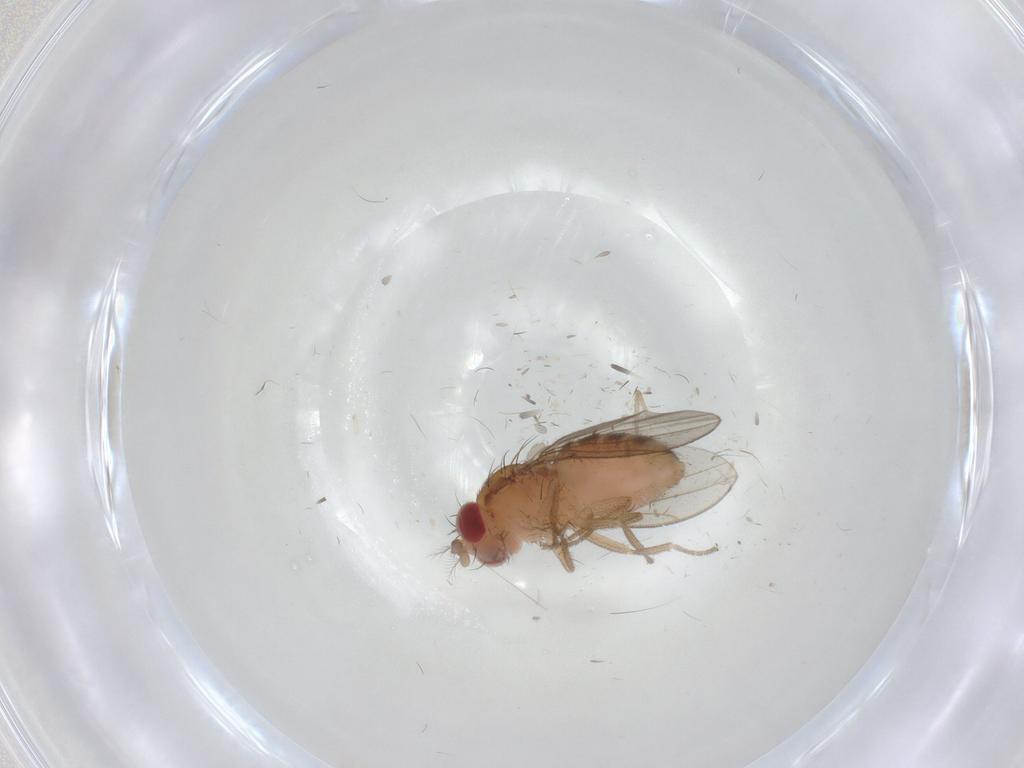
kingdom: Animalia
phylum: Arthropoda
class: Insecta
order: Diptera
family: Drosophilidae
